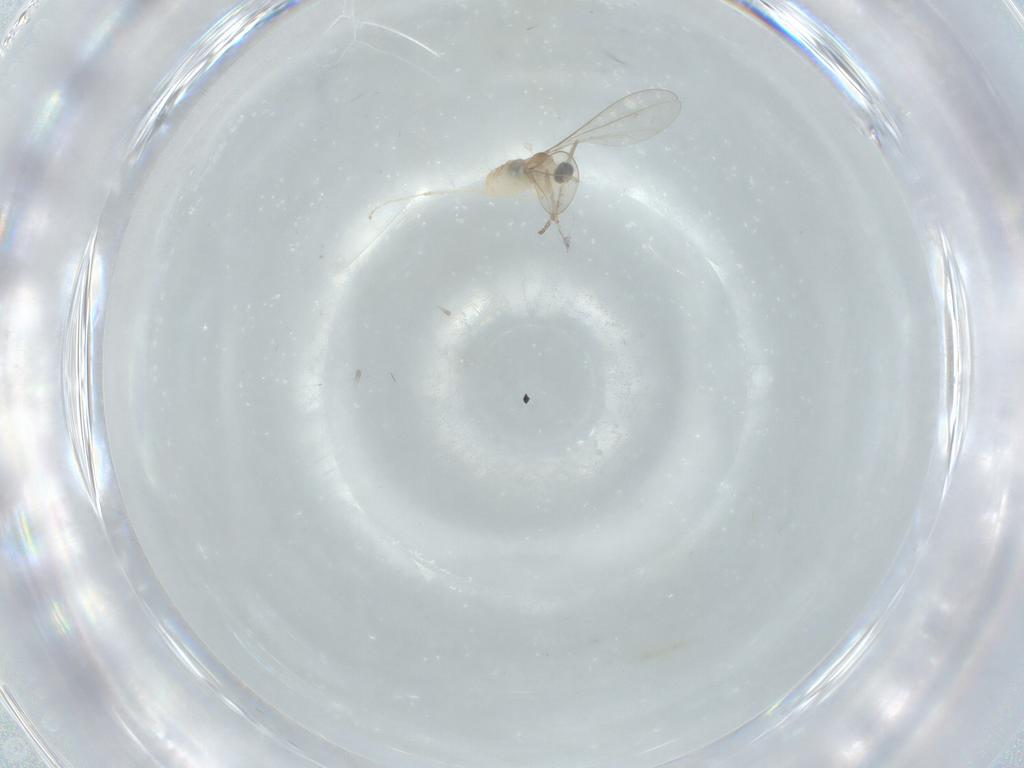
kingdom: Animalia
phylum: Arthropoda
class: Insecta
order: Diptera
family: Cecidomyiidae
